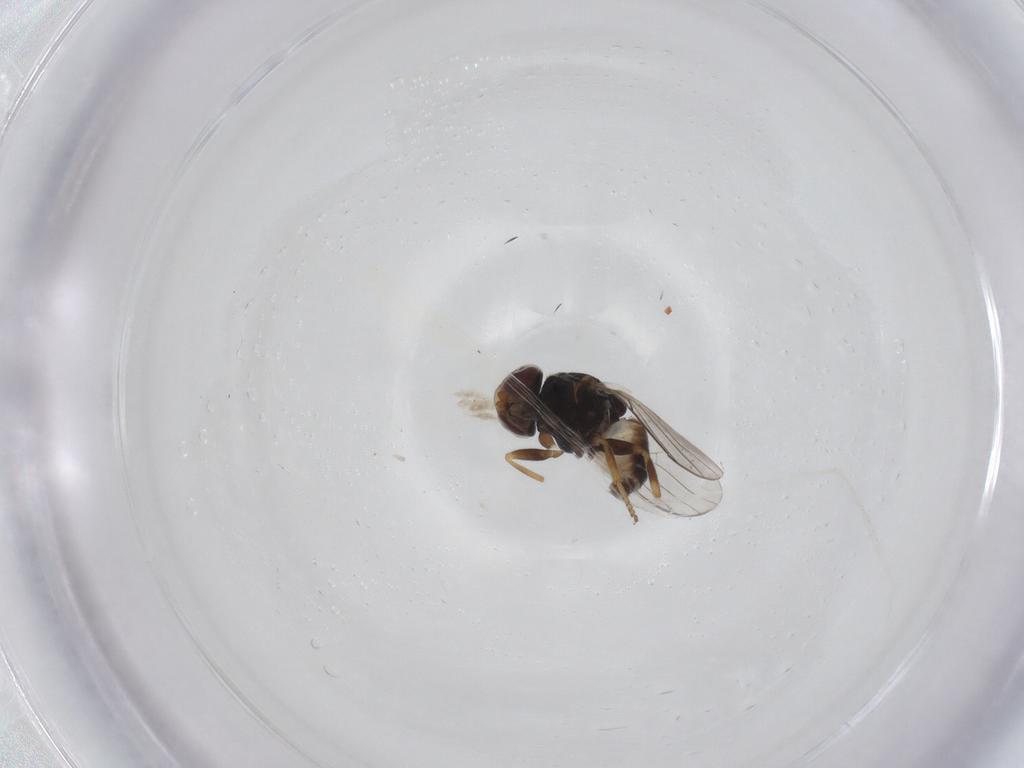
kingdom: Animalia
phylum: Arthropoda
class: Insecta
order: Diptera
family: Chloropidae
